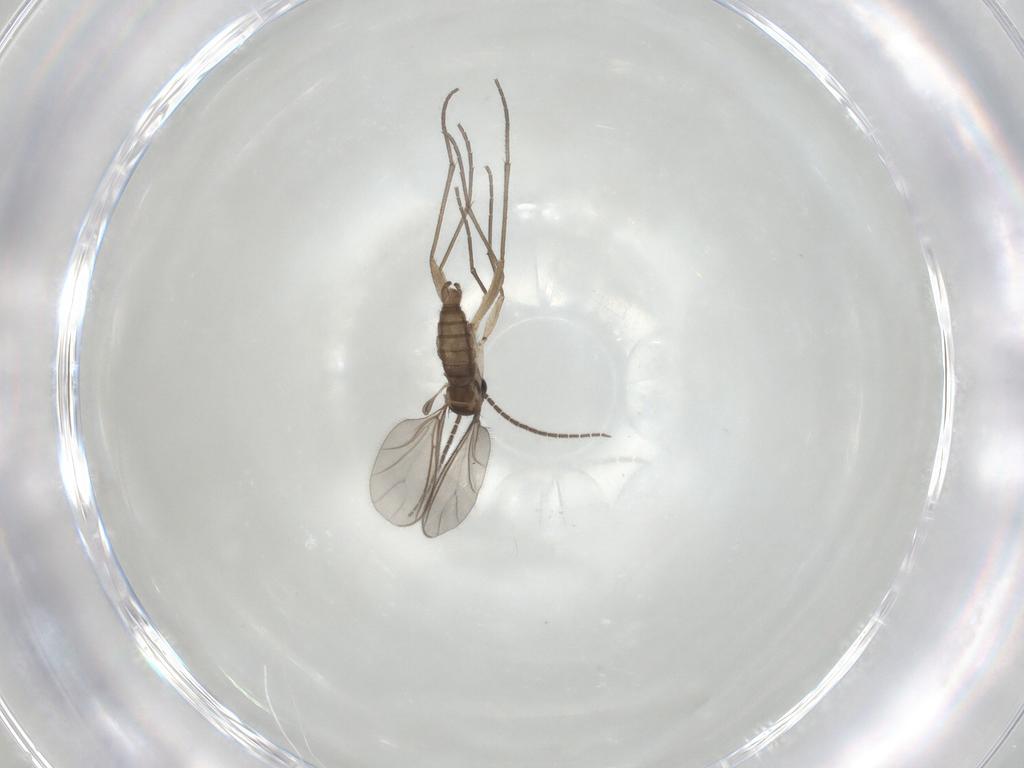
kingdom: Animalia
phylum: Arthropoda
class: Insecta
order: Diptera
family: Sciaridae
